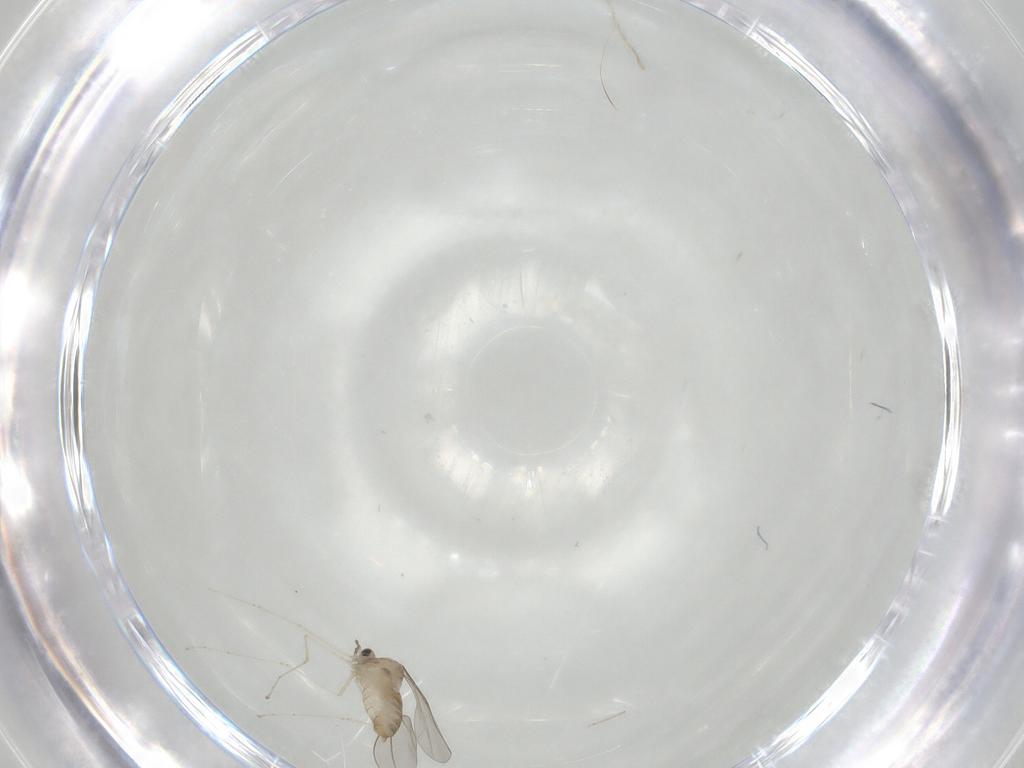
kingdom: Animalia
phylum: Arthropoda
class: Insecta
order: Diptera
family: Cecidomyiidae
